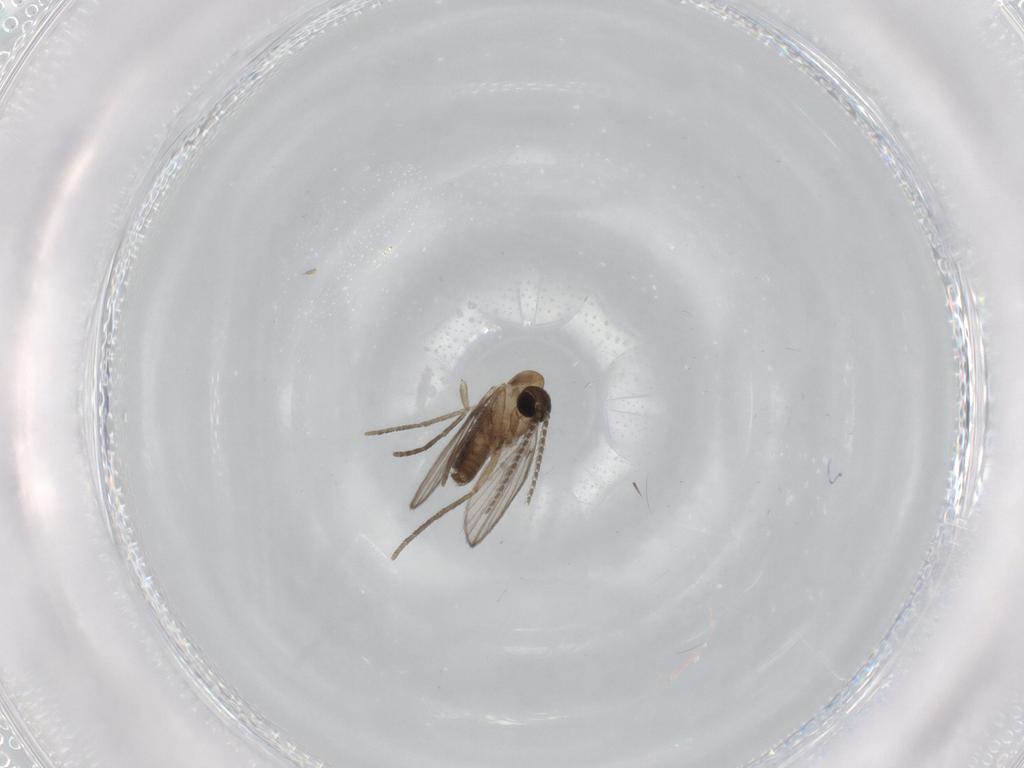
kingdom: Animalia
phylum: Arthropoda
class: Insecta
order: Diptera
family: Psychodidae
